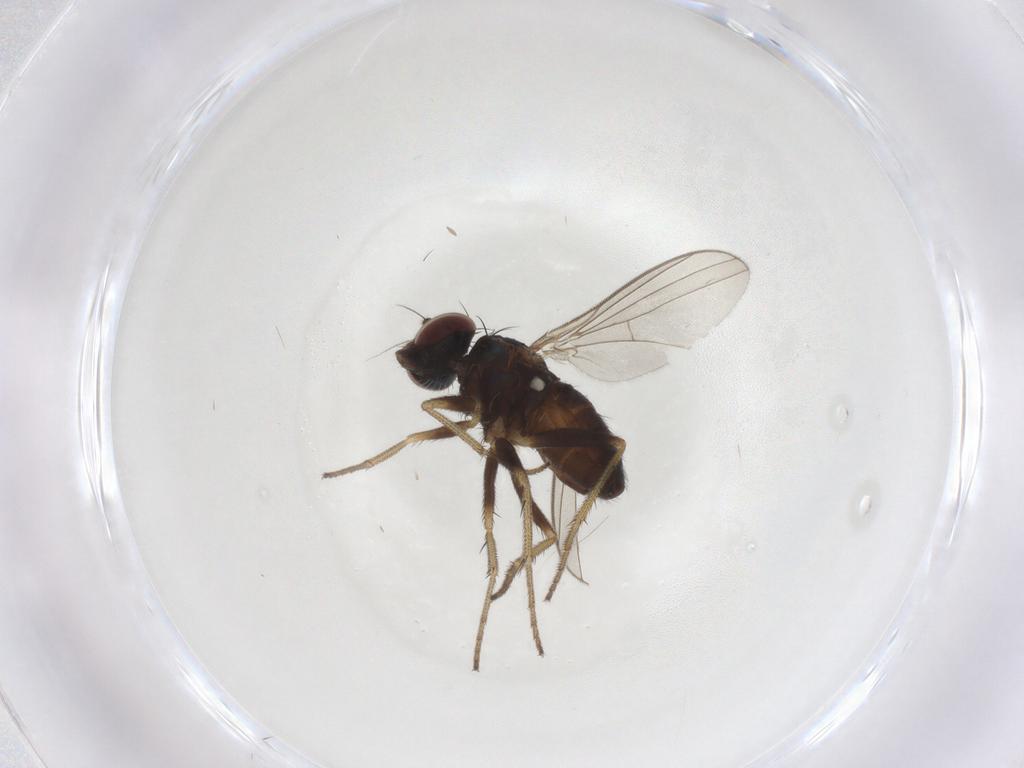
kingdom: Animalia
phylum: Arthropoda
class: Insecta
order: Diptera
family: Dolichopodidae
